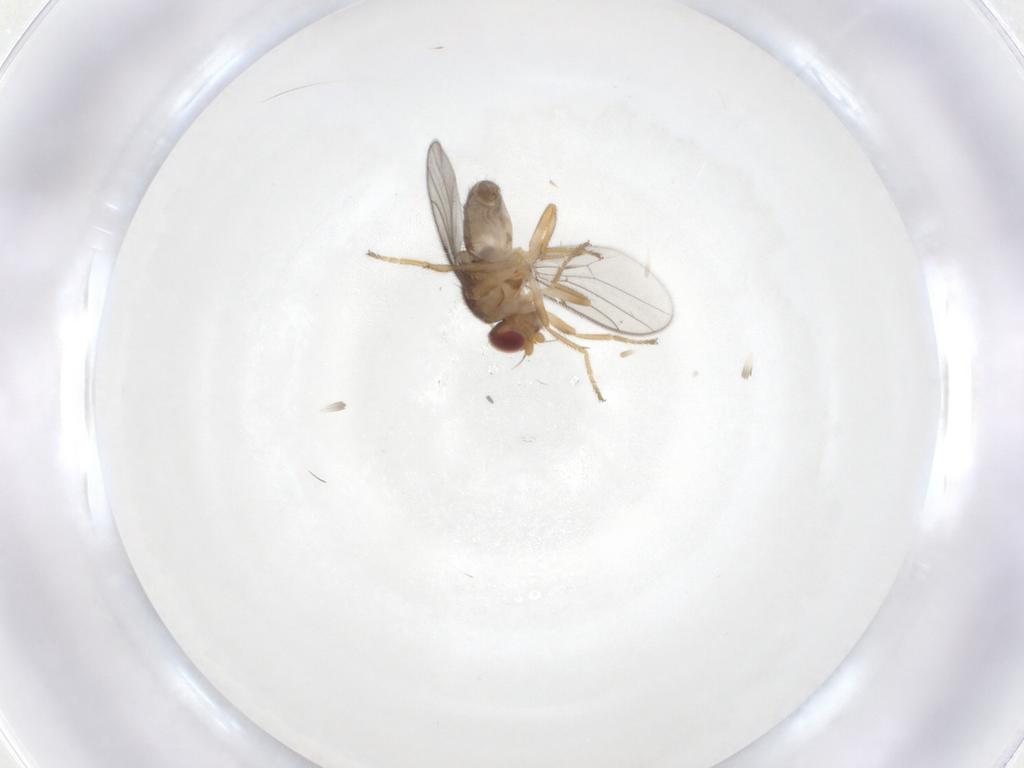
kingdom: Animalia
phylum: Arthropoda
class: Insecta
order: Diptera
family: Chloropidae
